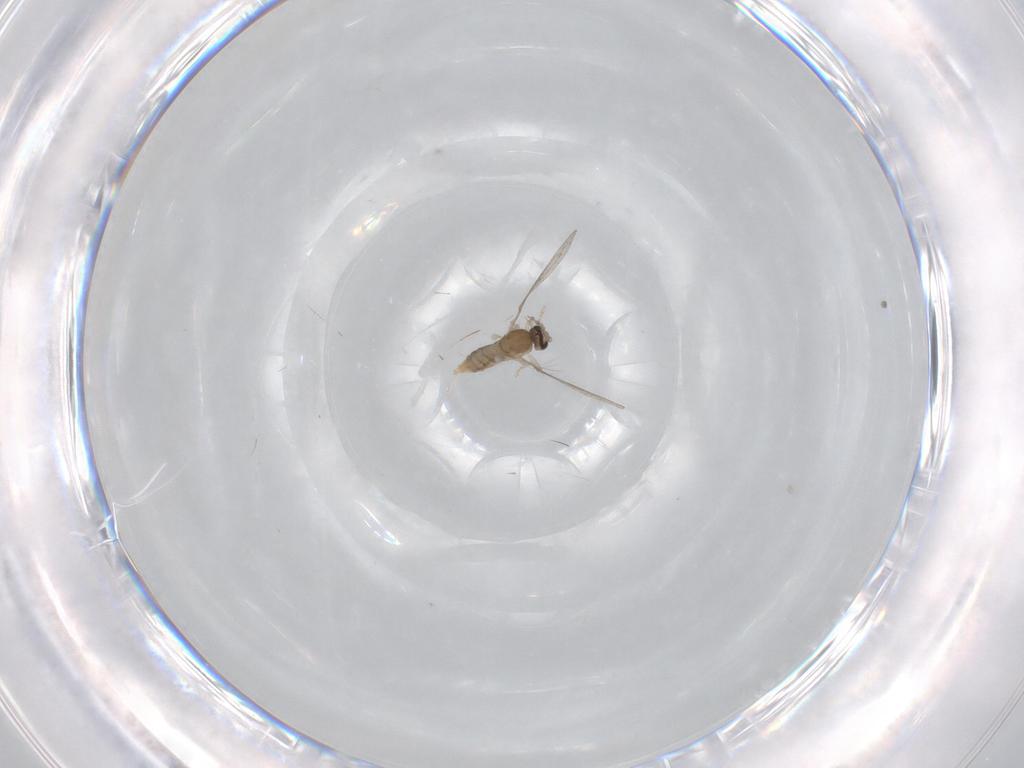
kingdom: Animalia
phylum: Arthropoda
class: Insecta
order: Diptera
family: Cecidomyiidae
